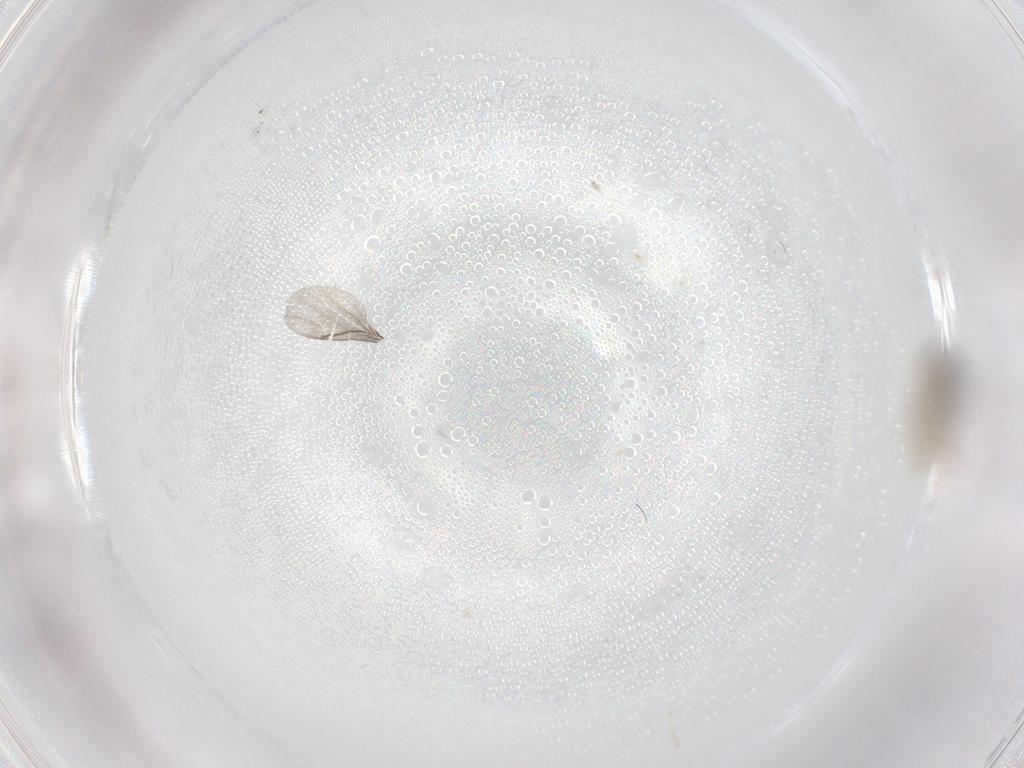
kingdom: Animalia
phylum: Arthropoda
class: Insecta
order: Diptera
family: Psychodidae
